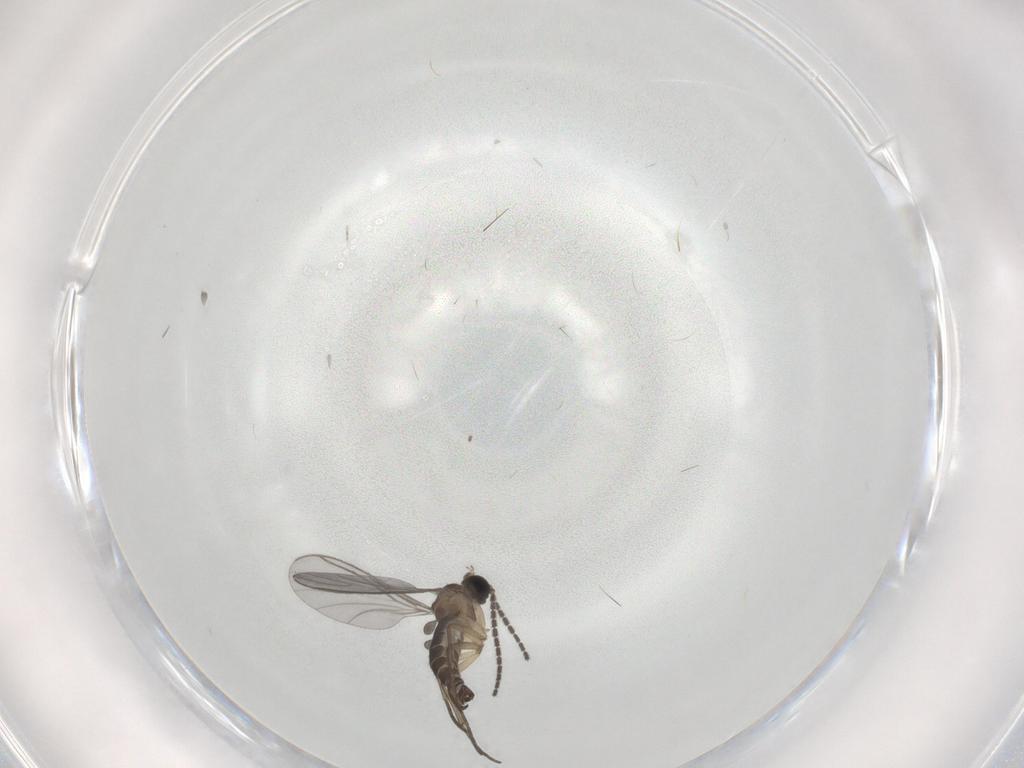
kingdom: Animalia
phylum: Arthropoda
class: Insecta
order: Diptera
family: Sciaridae
